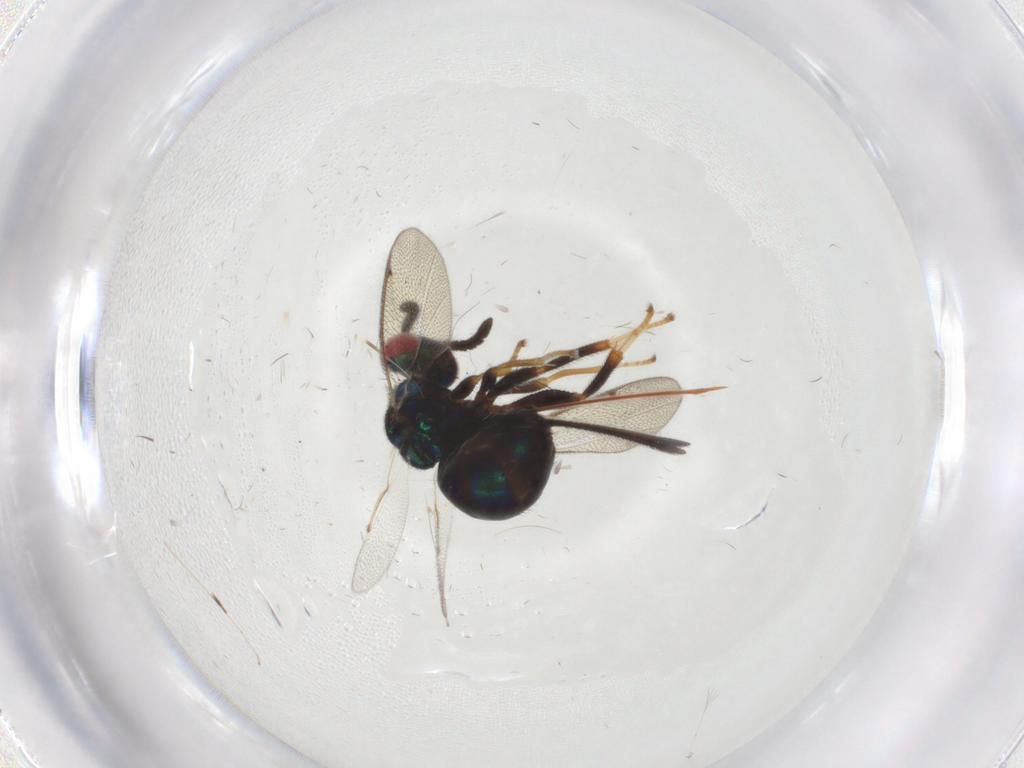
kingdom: Animalia
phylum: Arthropoda
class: Insecta
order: Hymenoptera
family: Torymidae
